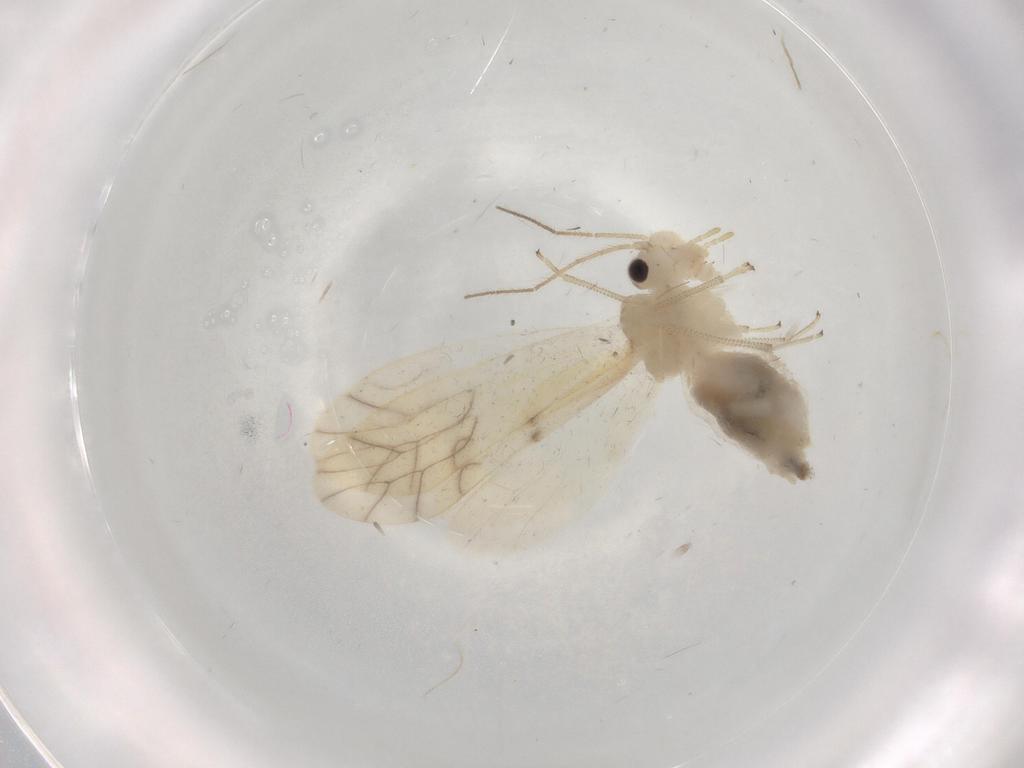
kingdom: Animalia
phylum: Arthropoda
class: Insecta
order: Psocodea
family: Caeciliusidae
